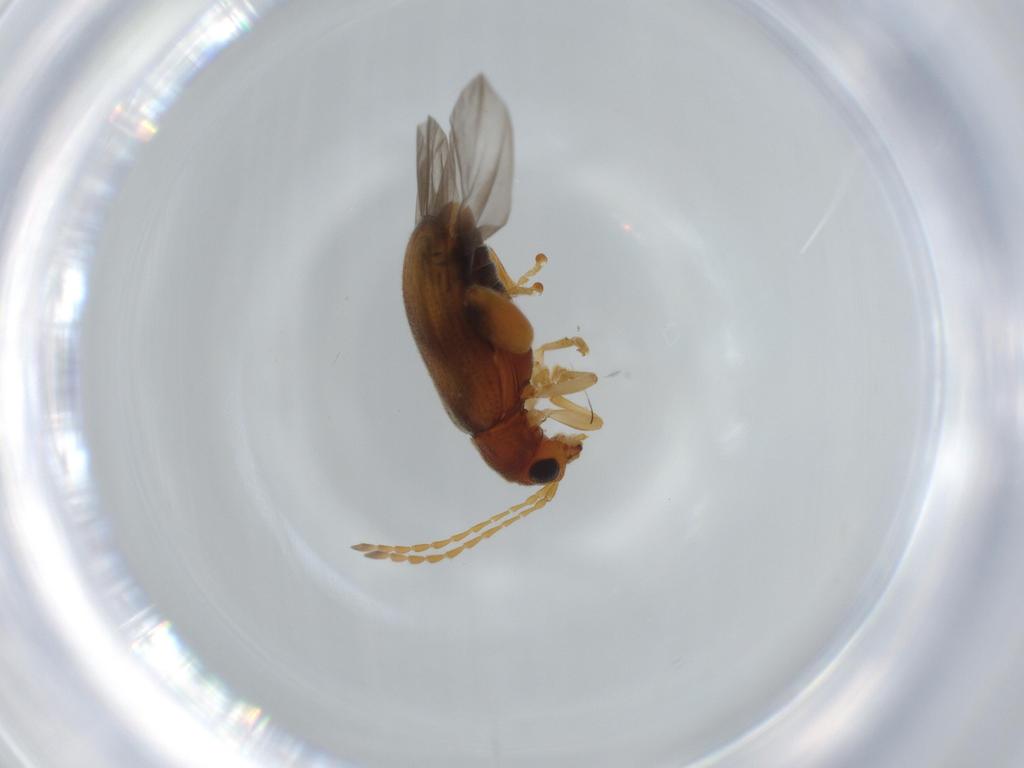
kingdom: Animalia
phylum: Arthropoda
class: Insecta
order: Coleoptera
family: Chrysomelidae
